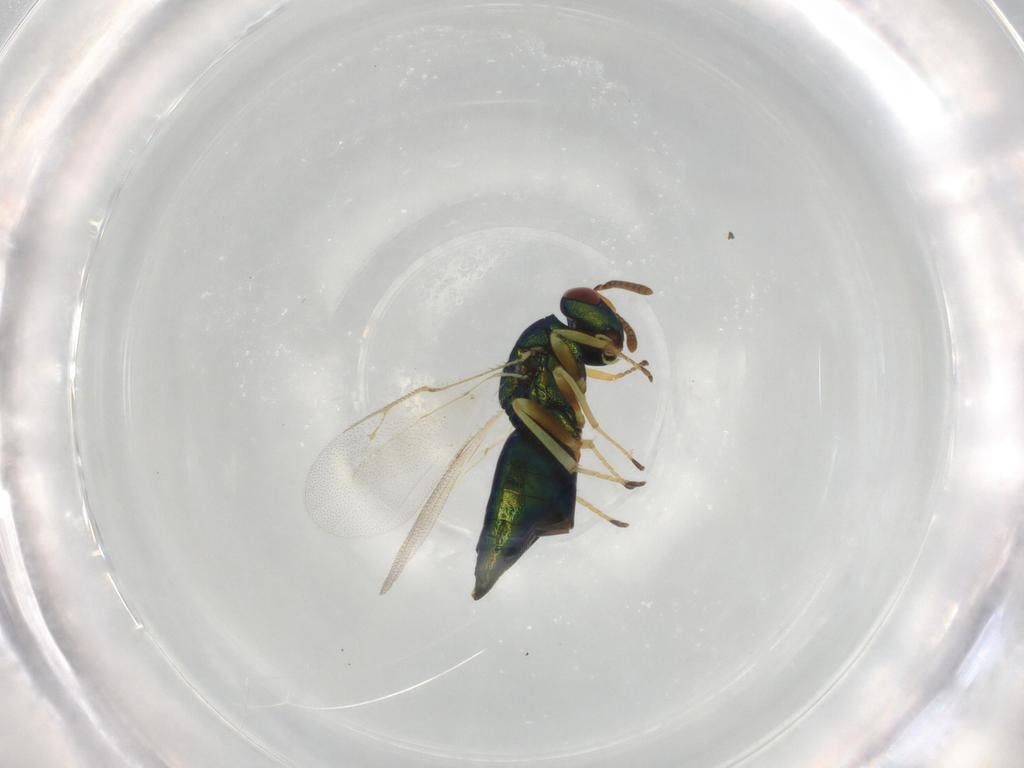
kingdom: Animalia
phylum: Arthropoda
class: Insecta
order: Hymenoptera
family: Pteromalidae
